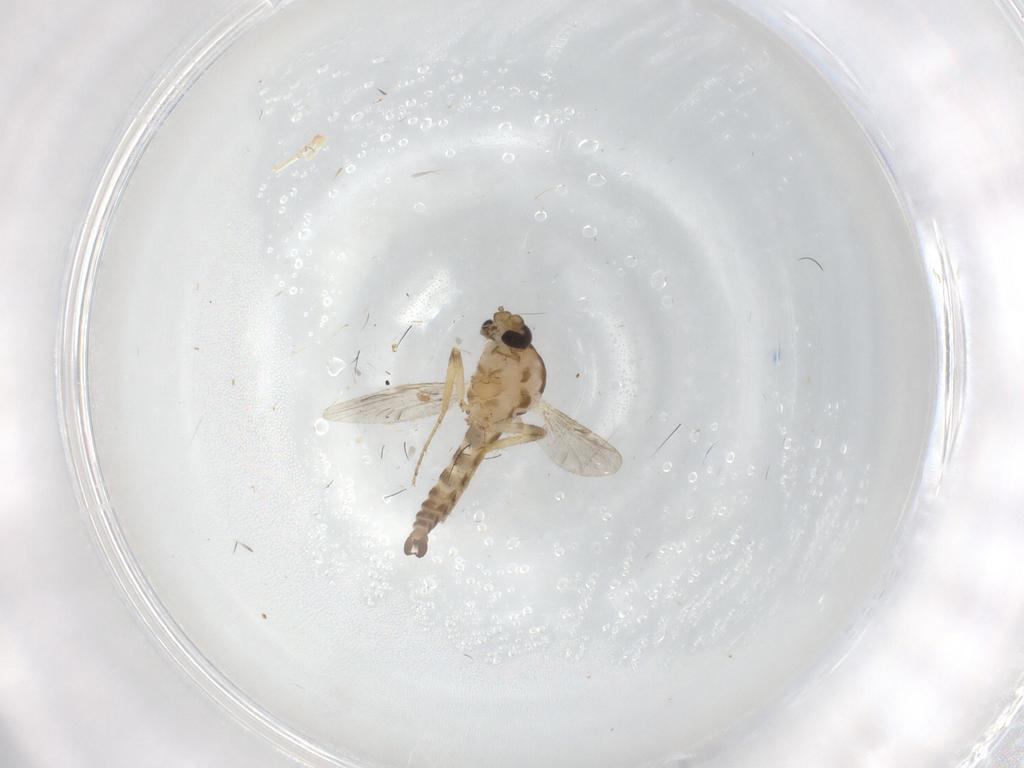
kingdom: Animalia
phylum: Arthropoda
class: Insecta
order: Diptera
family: Ceratopogonidae
